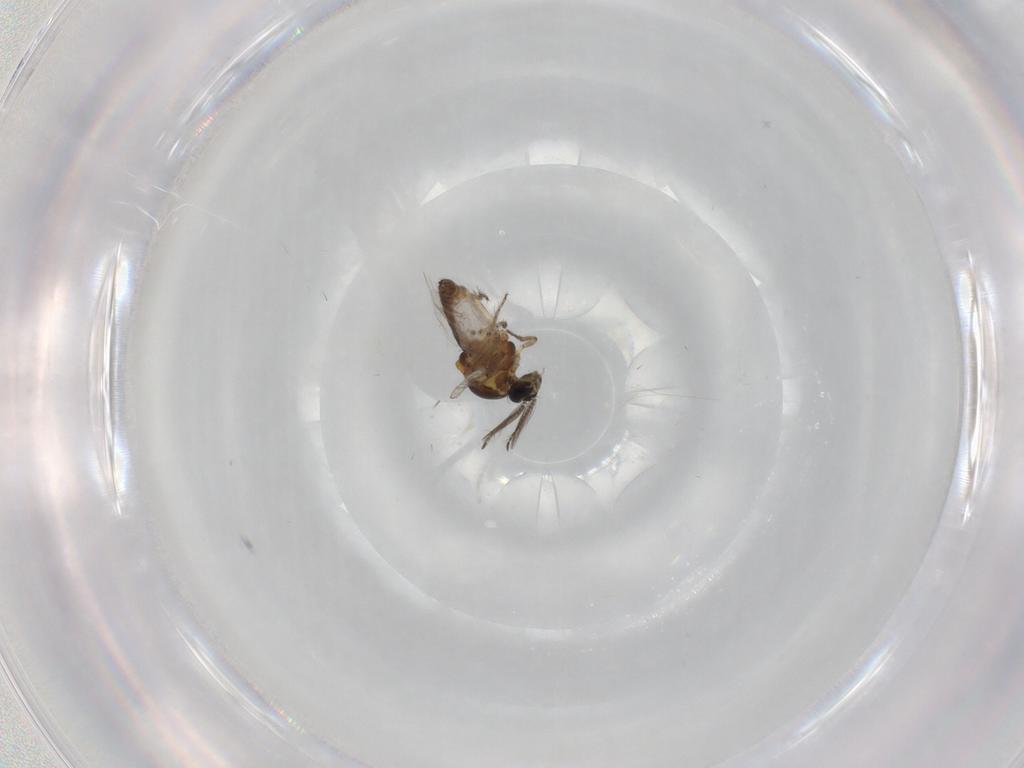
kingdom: Animalia
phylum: Arthropoda
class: Insecta
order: Diptera
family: Ceratopogonidae
